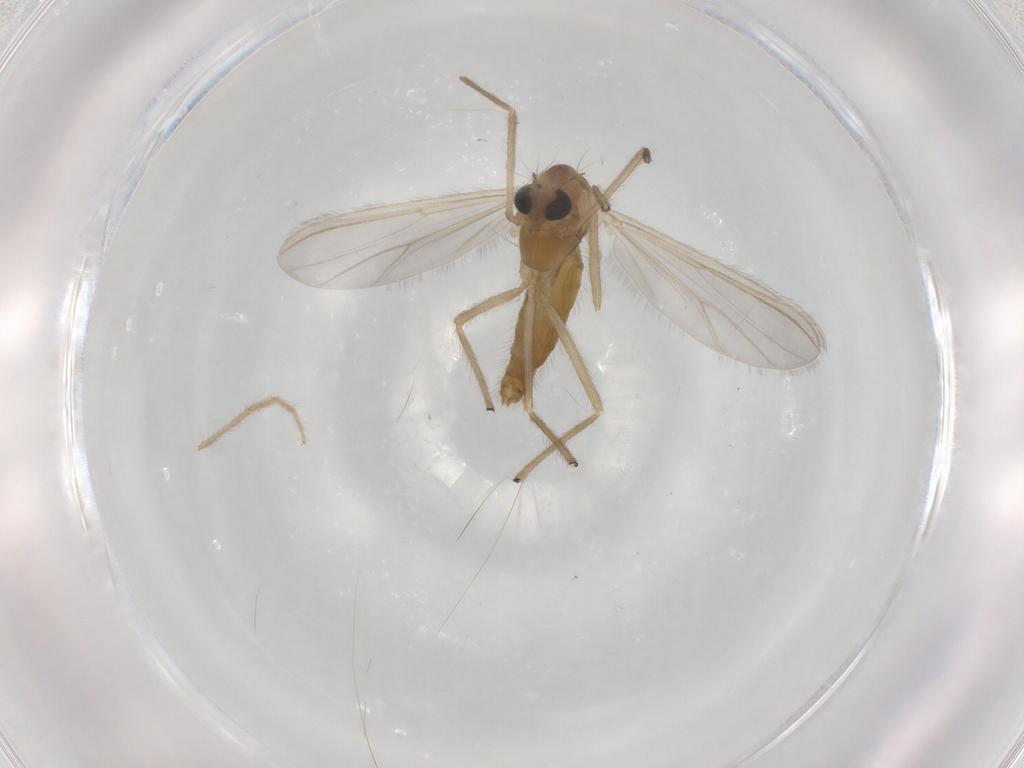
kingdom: Animalia
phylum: Arthropoda
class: Insecta
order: Diptera
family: Chironomidae
